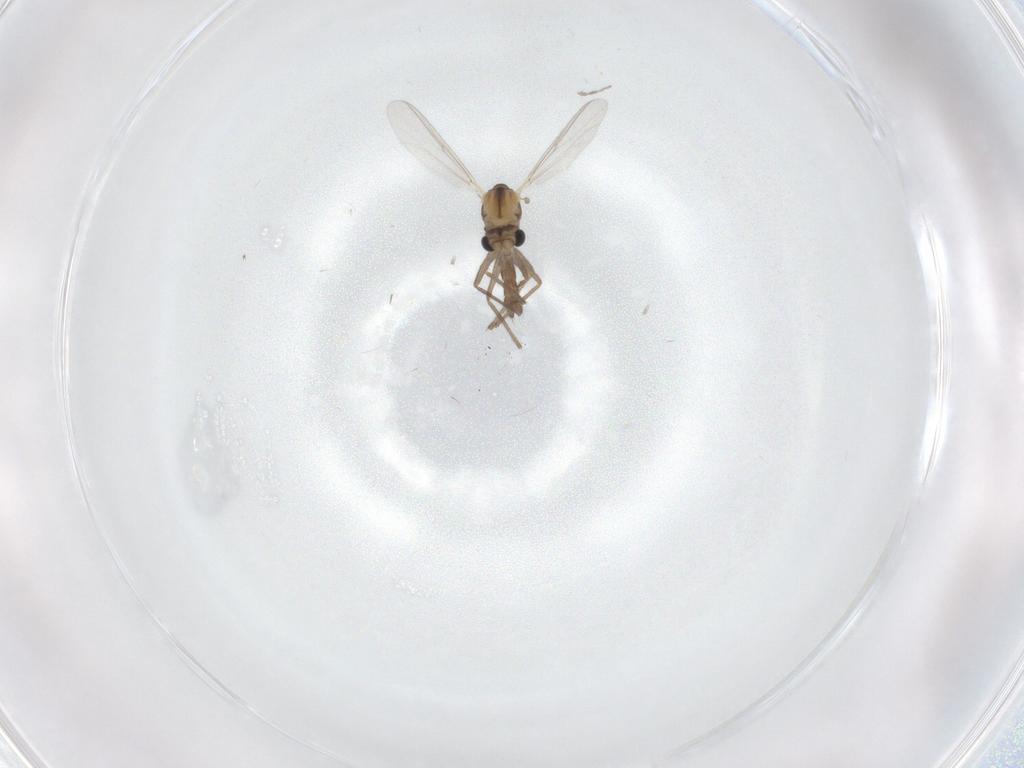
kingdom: Animalia
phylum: Arthropoda
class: Insecta
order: Diptera
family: Chironomidae
